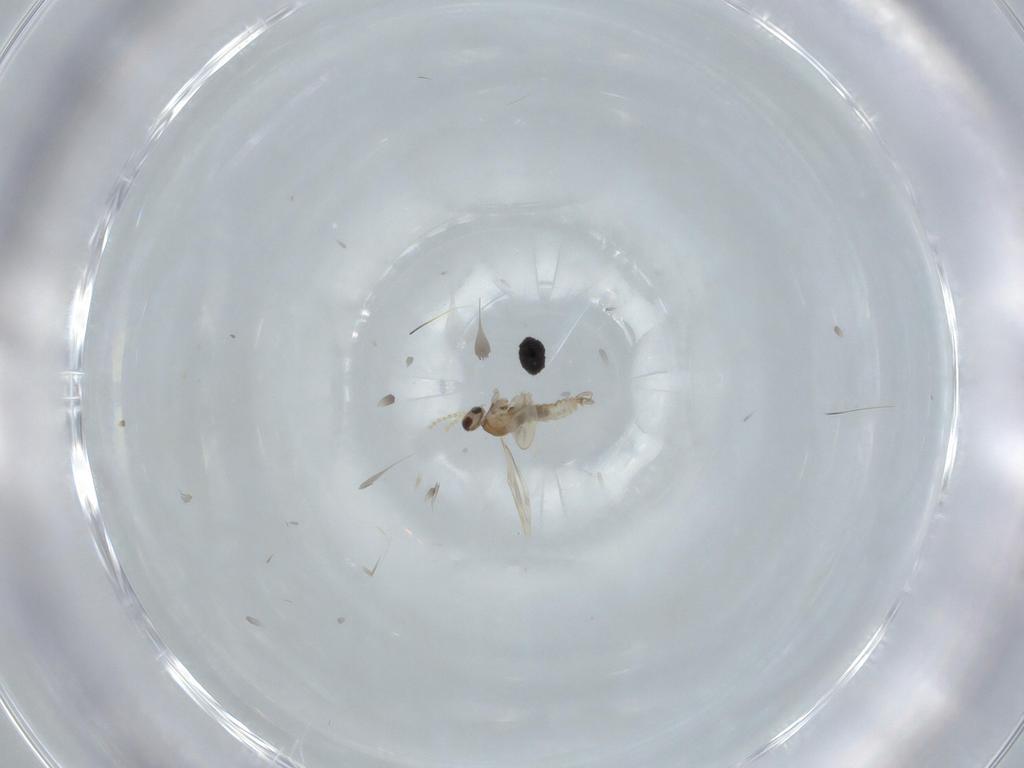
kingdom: Animalia
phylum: Arthropoda
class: Insecta
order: Diptera
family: Cecidomyiidae
